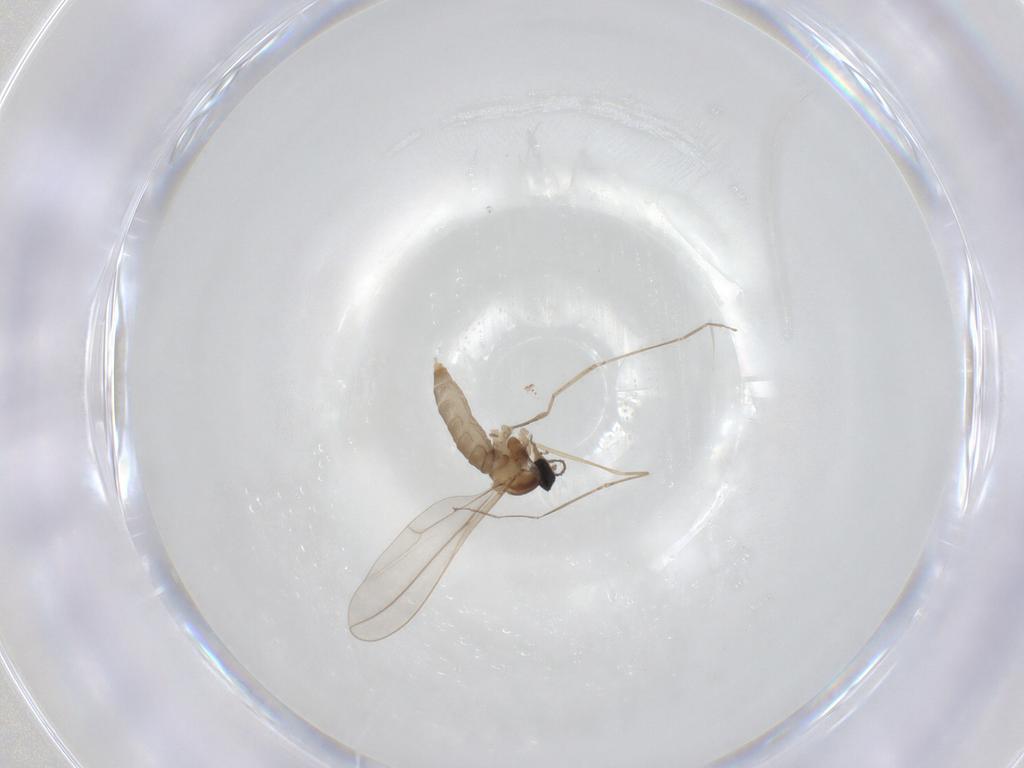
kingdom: Animalia
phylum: Arthropoda
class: Insecta
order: Diptera
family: Cecidomyiidae
